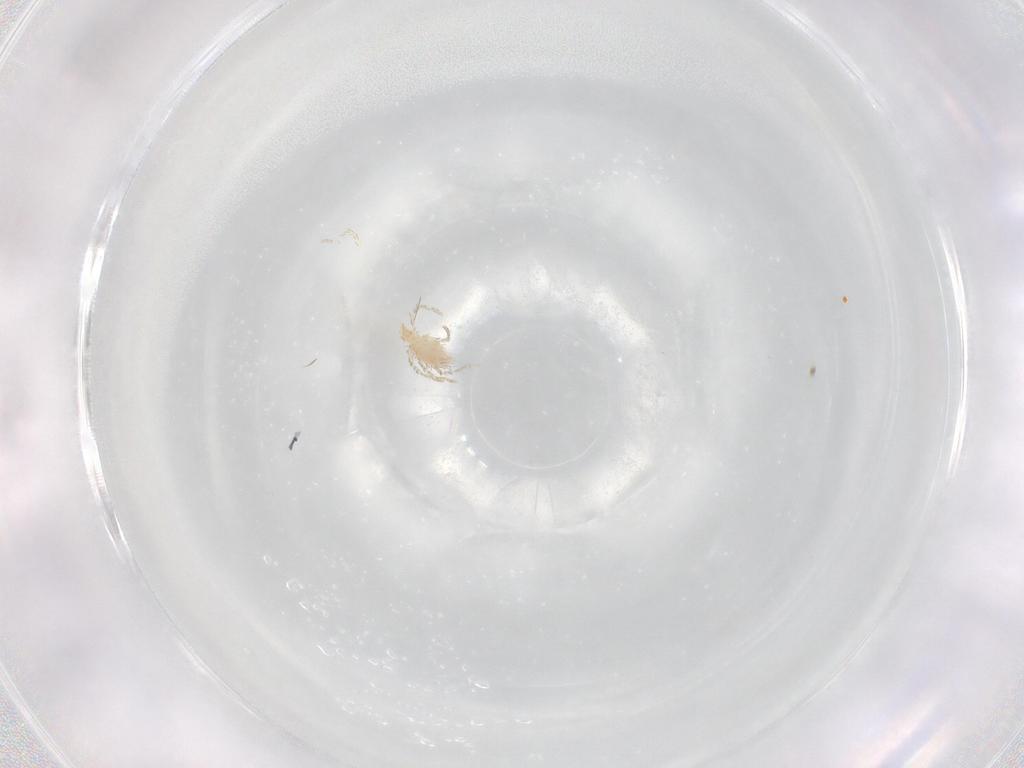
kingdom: Animalia
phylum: Arthropoda
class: Arachnida
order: Trombidiformes
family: Erythraeidae
